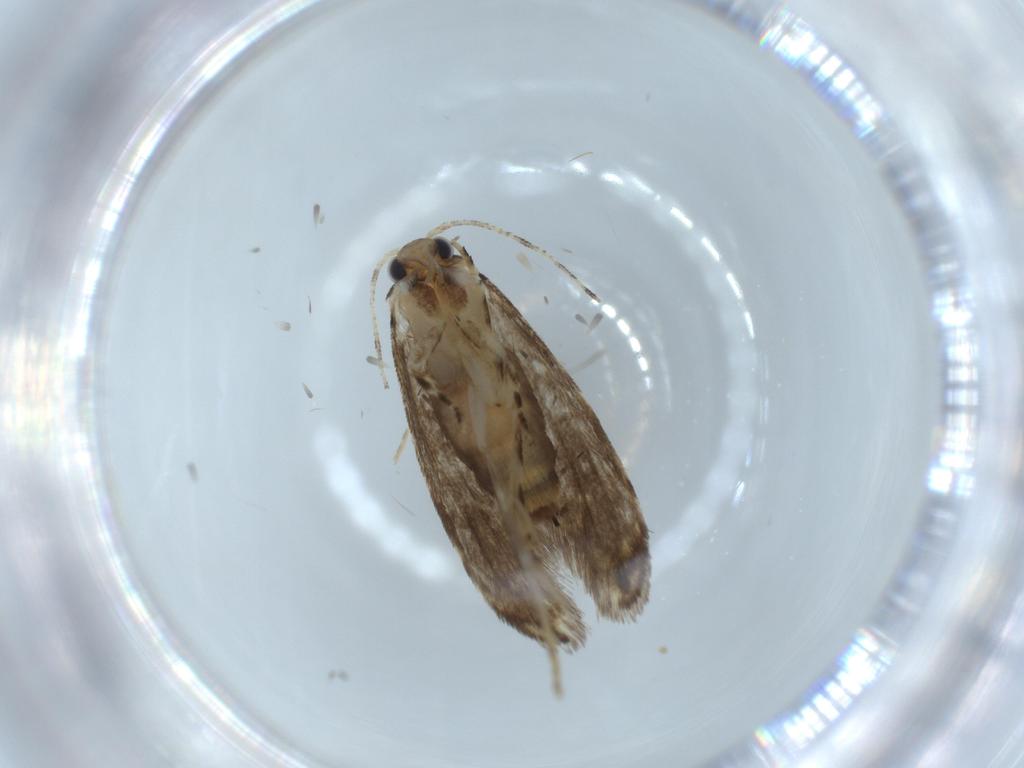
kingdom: Animalia
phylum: Arthropoda
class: Insecta
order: Lepidoptera
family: Tineidae
